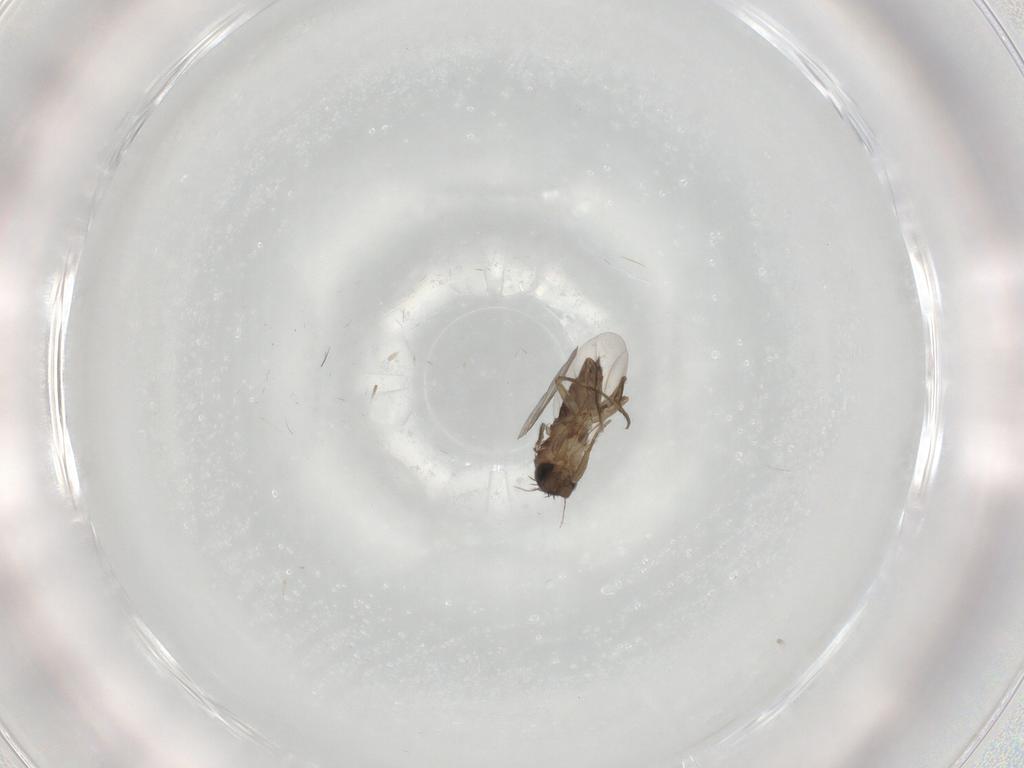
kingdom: Animalia
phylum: Arthropoda
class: Insecta
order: Diptera
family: Phoridae
